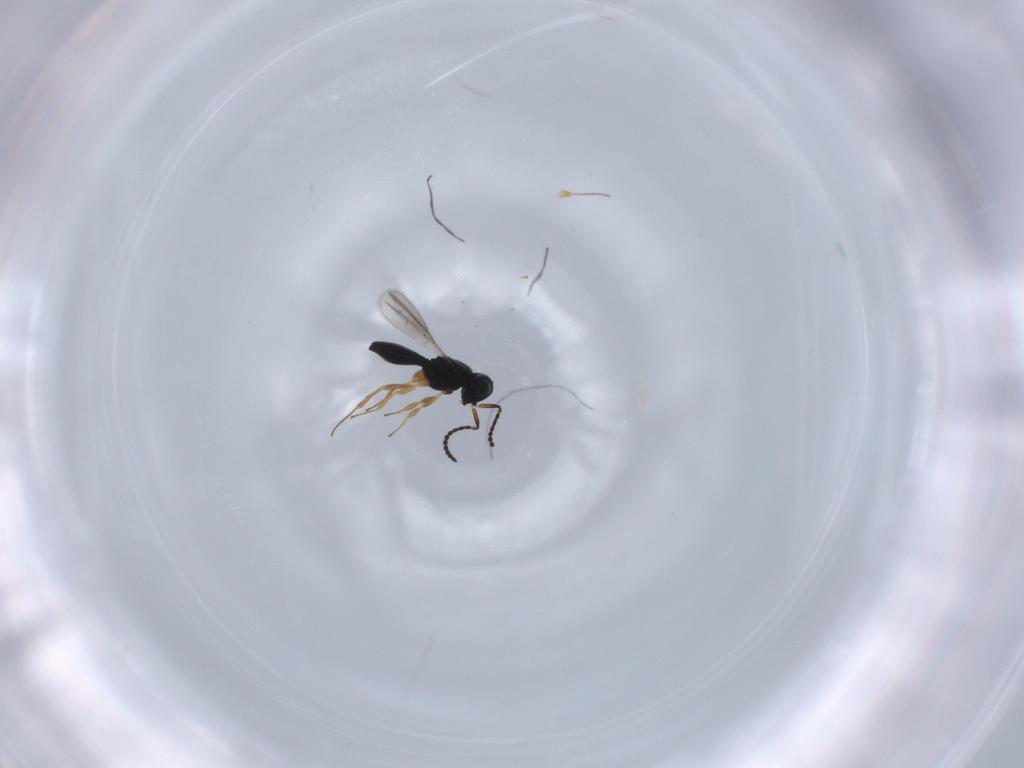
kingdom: Animalia
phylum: Arthropoda
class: Insecta
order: Hymenoptera
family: Scelionidae
